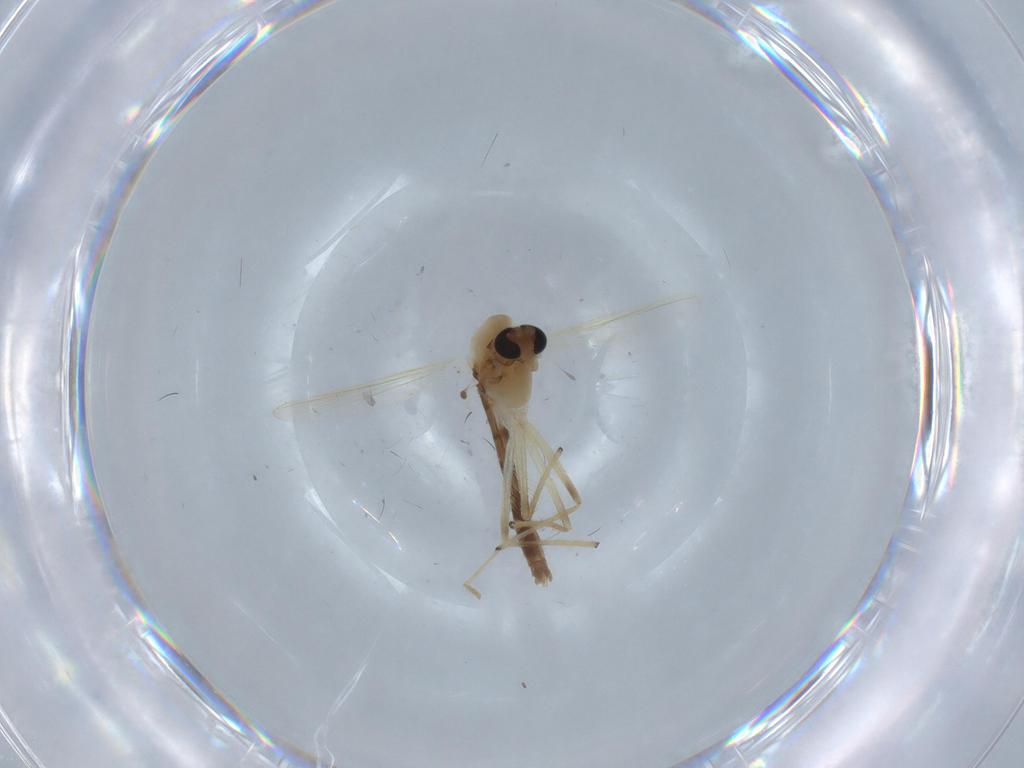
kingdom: Animalia
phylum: Arthropoda
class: Insecta
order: Diptera
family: Chironomidae
